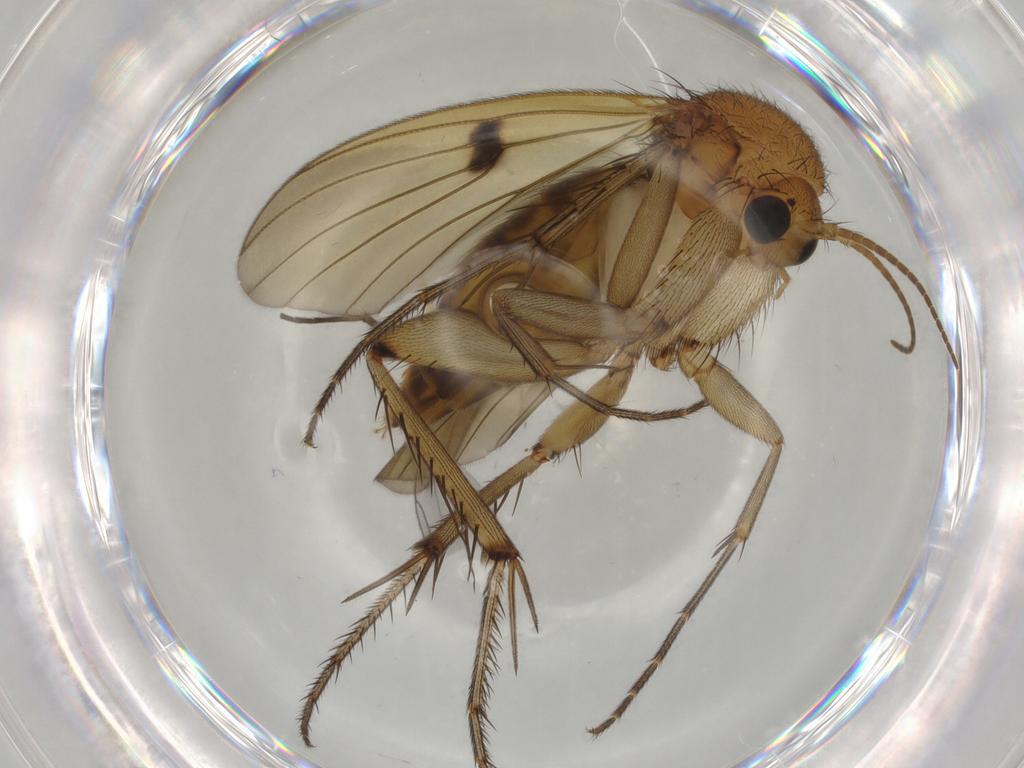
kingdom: Animalia
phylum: Arthropoda
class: Insecta
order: Diptera
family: Mycetophilidae
